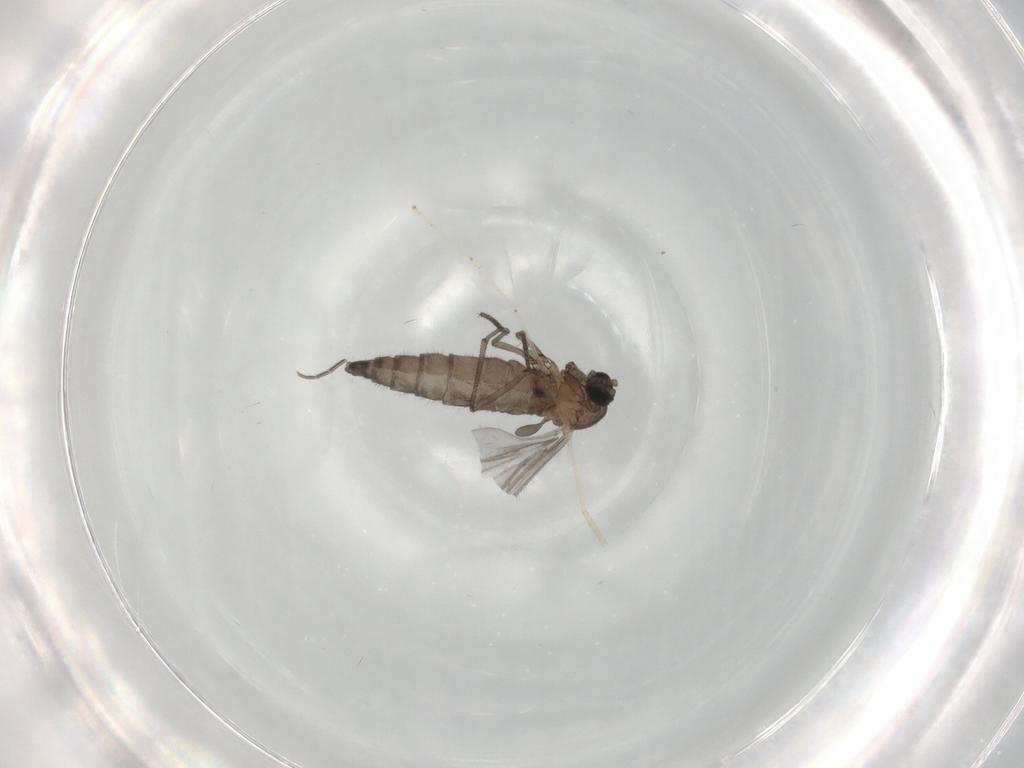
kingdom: Animalia
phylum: Arthropoda
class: Insecta
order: Diptera
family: Sciaridae
